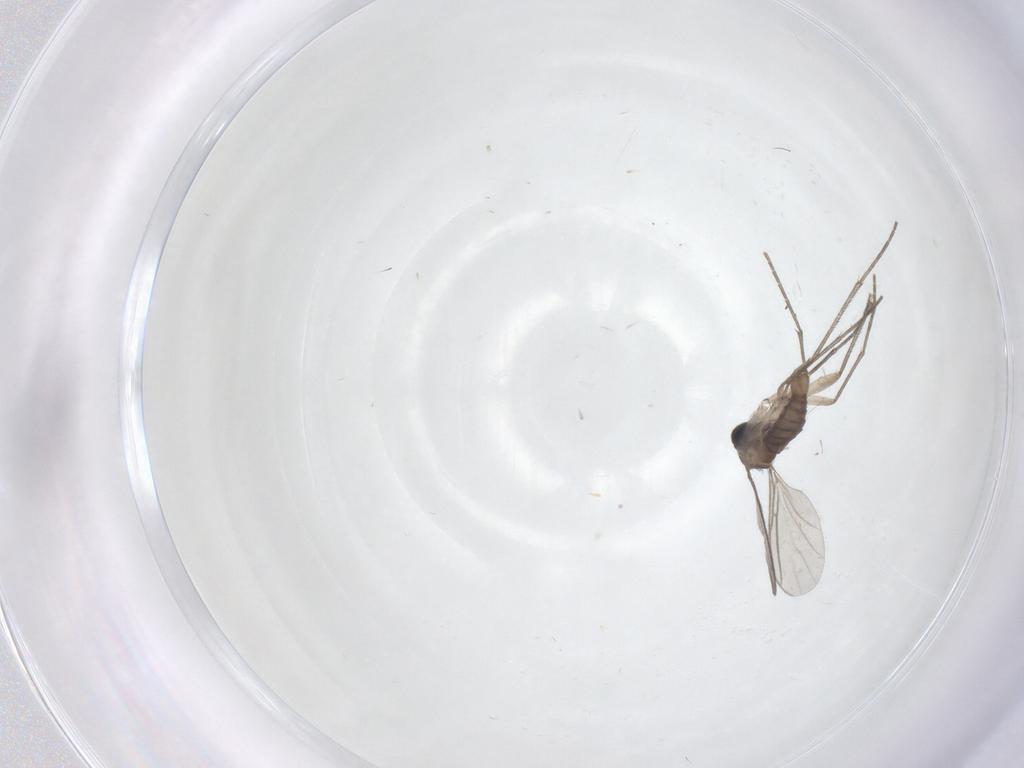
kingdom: Animalia
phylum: Arthropoda
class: Insecta
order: Diptera
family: Sciaridae
